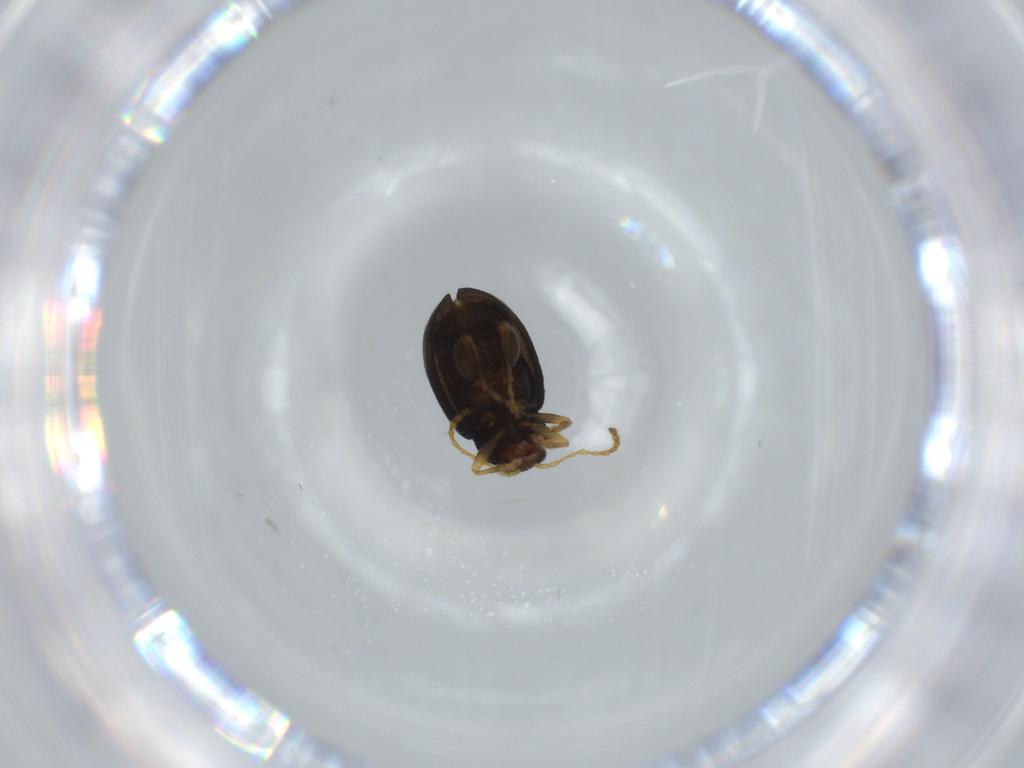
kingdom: Animalia
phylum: Arthropoda
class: Insecta
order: Coleoptera
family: Chrysomelidae
